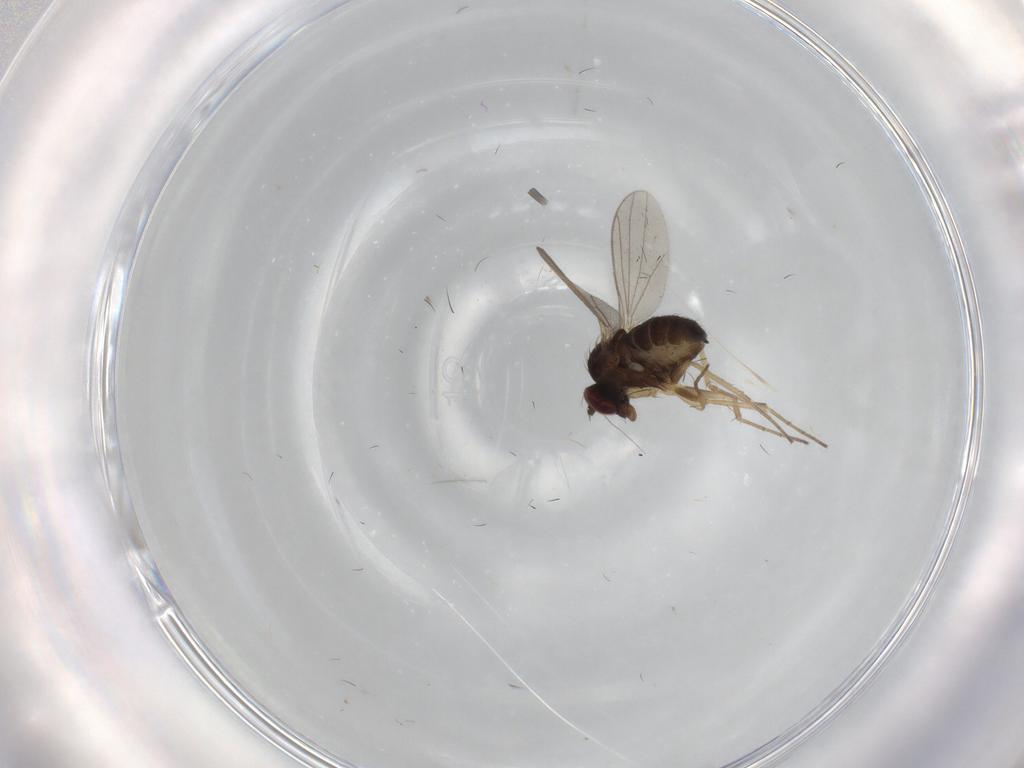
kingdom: Animalia
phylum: Arthropoda
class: Insecta
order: Diptera
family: Dolichopodidae
